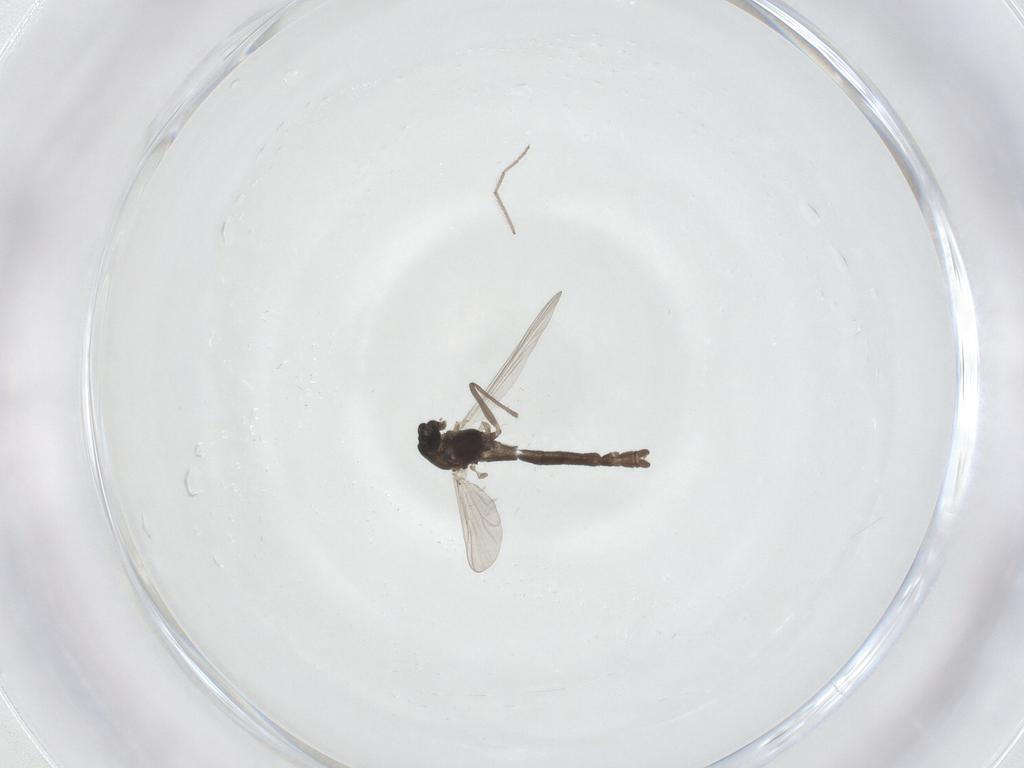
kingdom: Animalia
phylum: Arthropoda
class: Insecta
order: Diptera
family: Chironomidae
